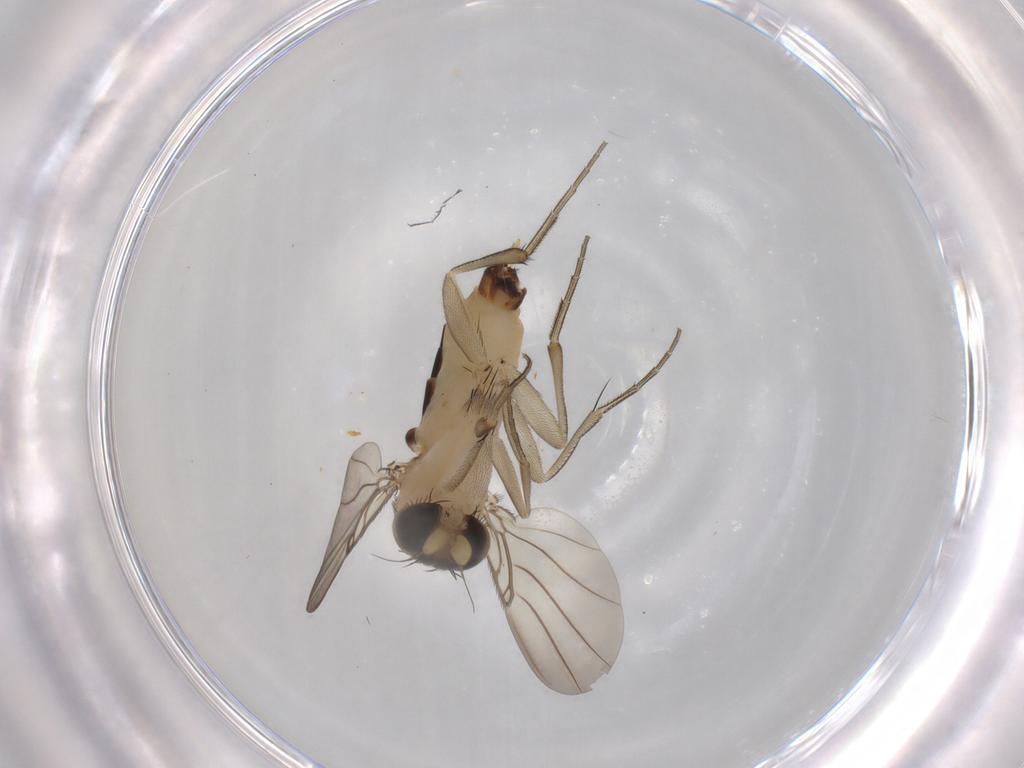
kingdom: Animalia
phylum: Arthropoda
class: Insecta
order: Diptera
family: Phoridae
